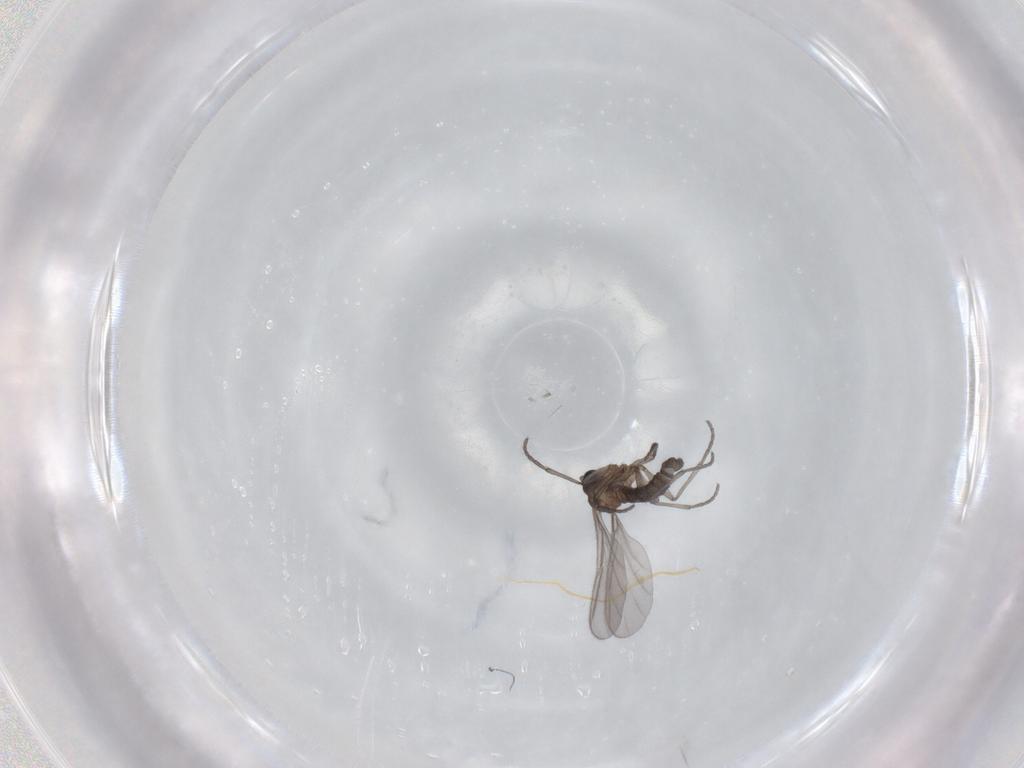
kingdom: Animalia
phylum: Arthropoda
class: Insecta
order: Diptera
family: Sciaridae
